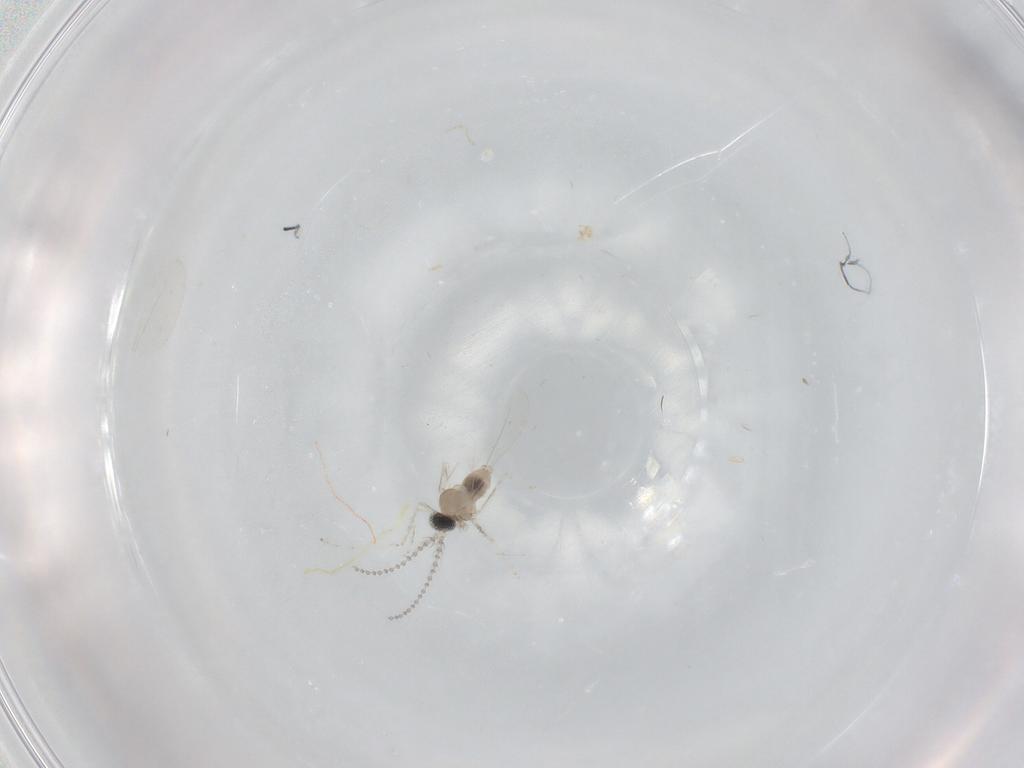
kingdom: Animalia
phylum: Arthropoda
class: Insecta
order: Diptera
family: Cecidomyiidae
